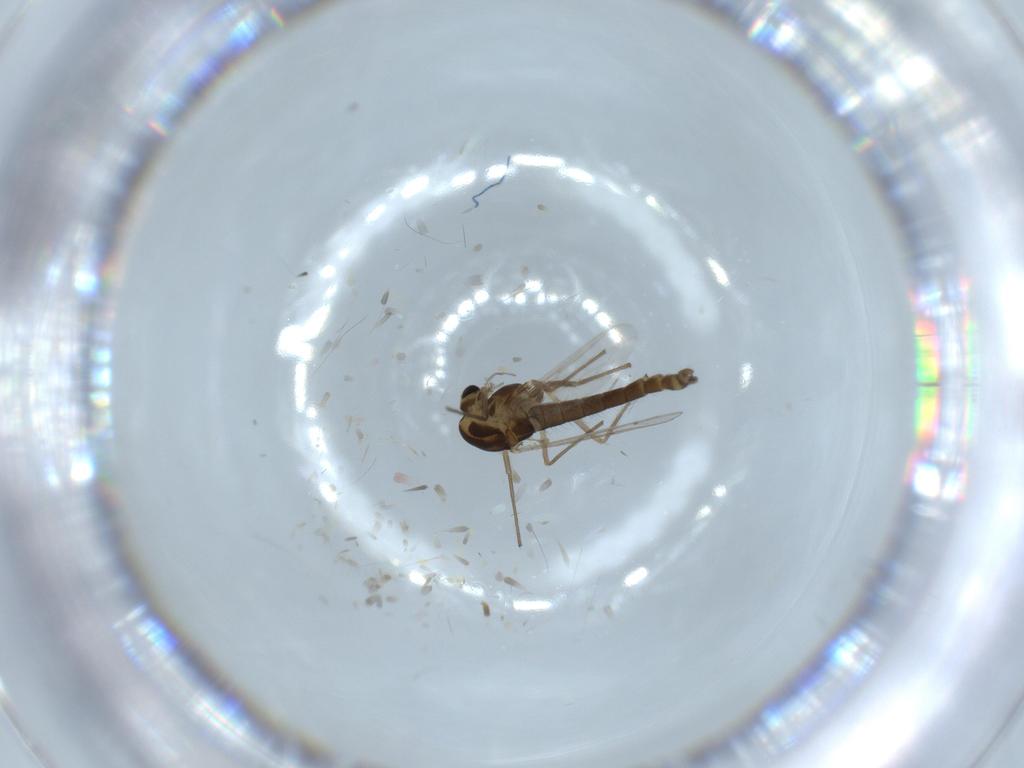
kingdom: Animalia
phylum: Arthropoda
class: Insecta
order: Diptera
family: Chironomidae
